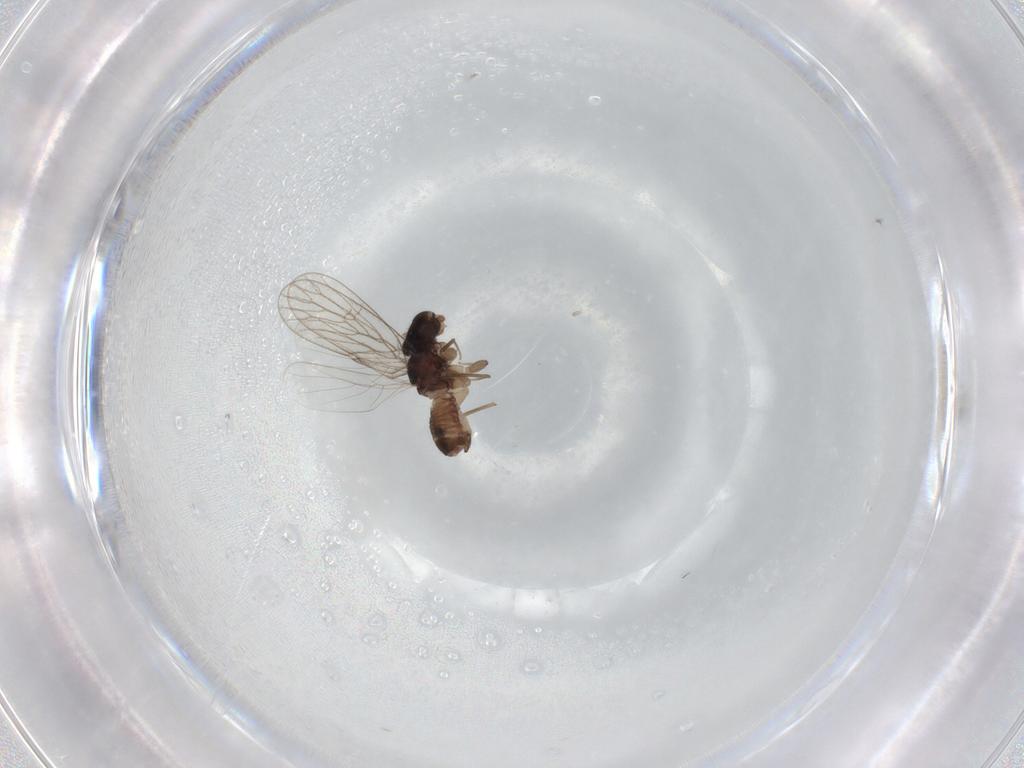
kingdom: Animalia
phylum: Arthropoda
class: Insecta
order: Psocodea
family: Psoquillidae
